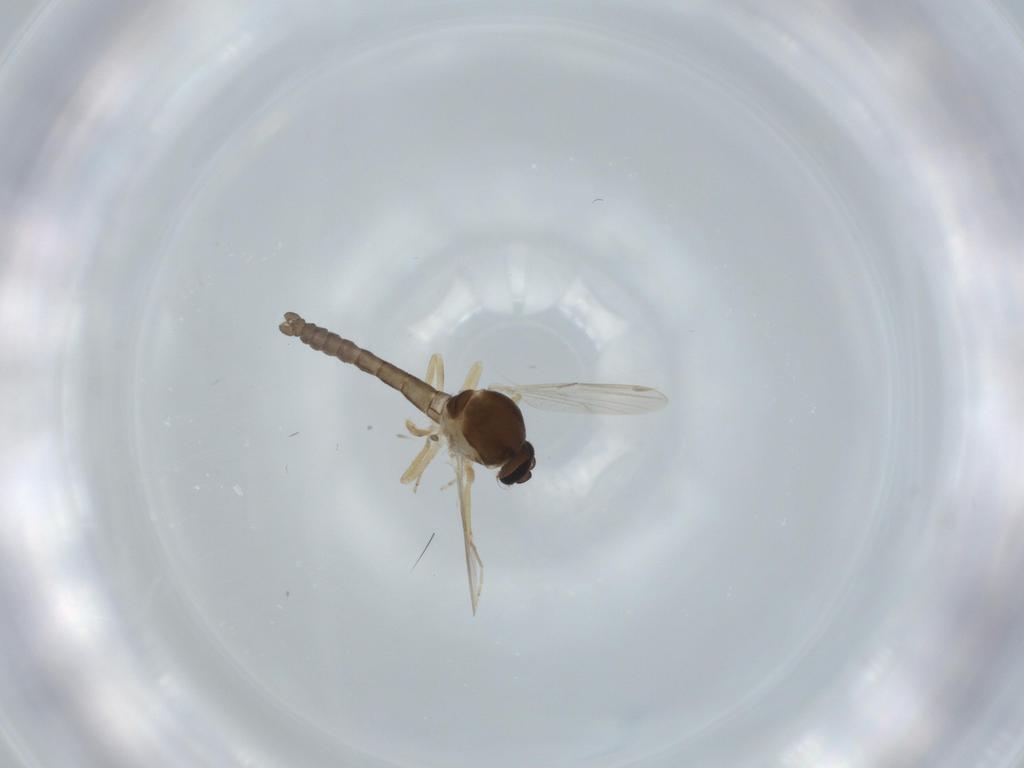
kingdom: Animalia
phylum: Arthropoda
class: Insecta
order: Diptera
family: Ceratopogonidae
